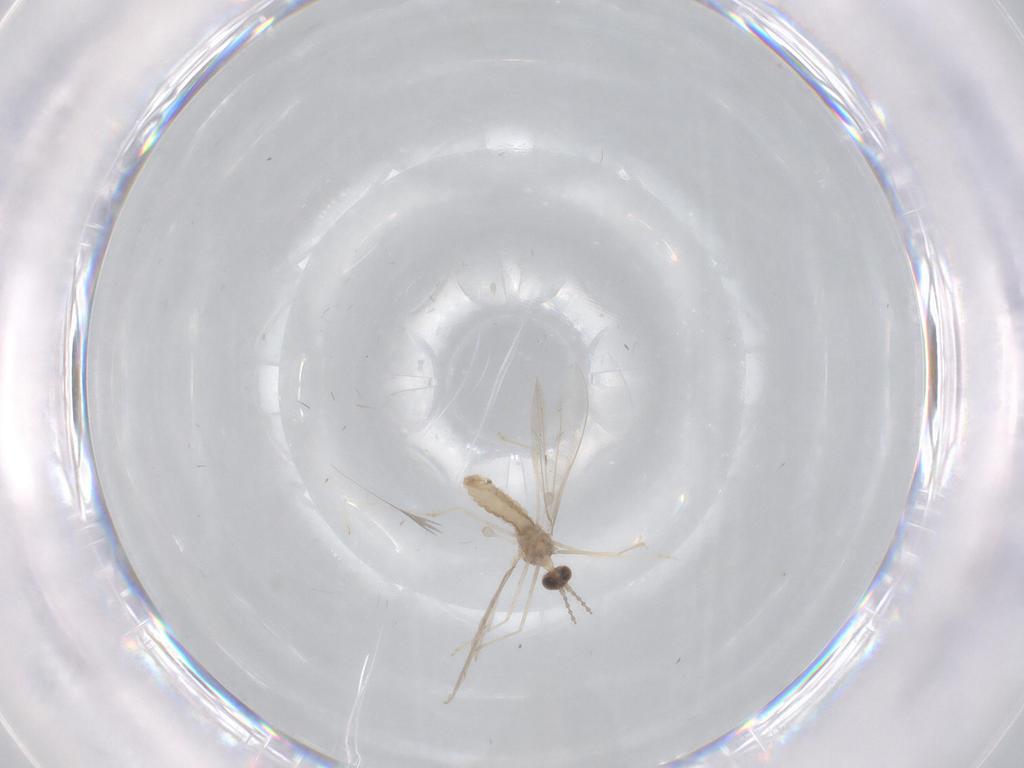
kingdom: Animalia
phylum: Arthropoda
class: Insecta
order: Diptera
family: Cecidomyiidae
